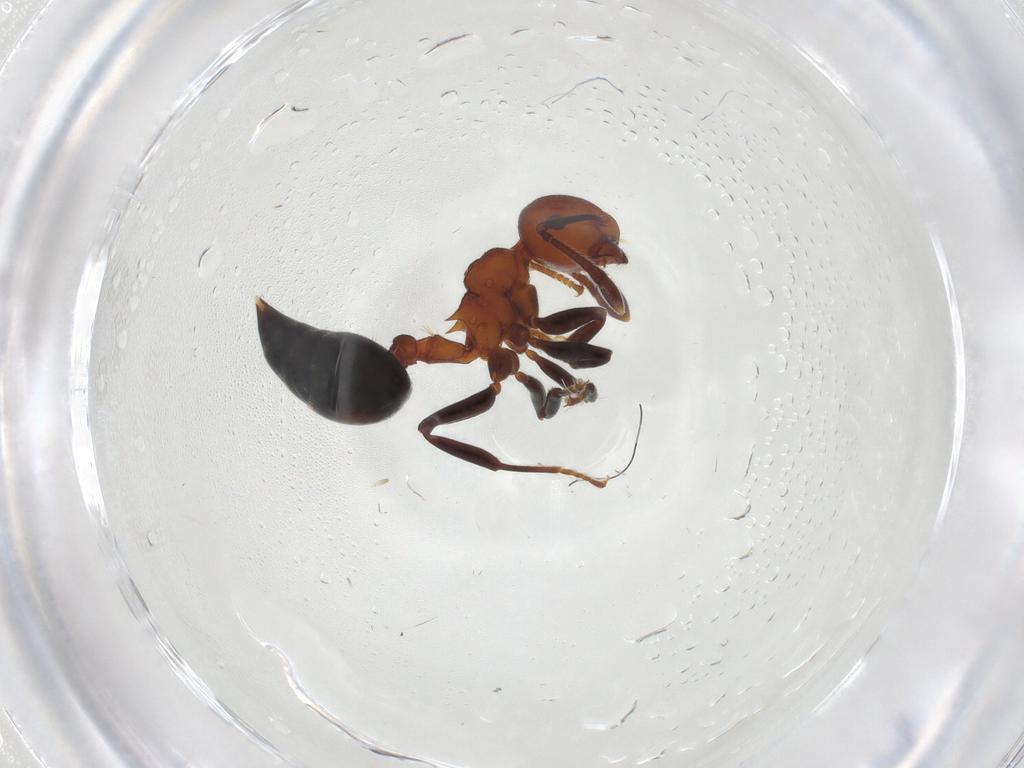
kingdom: Animalia
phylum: Arthropoda
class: Insecta
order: Hymenoptera
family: Formicidae
